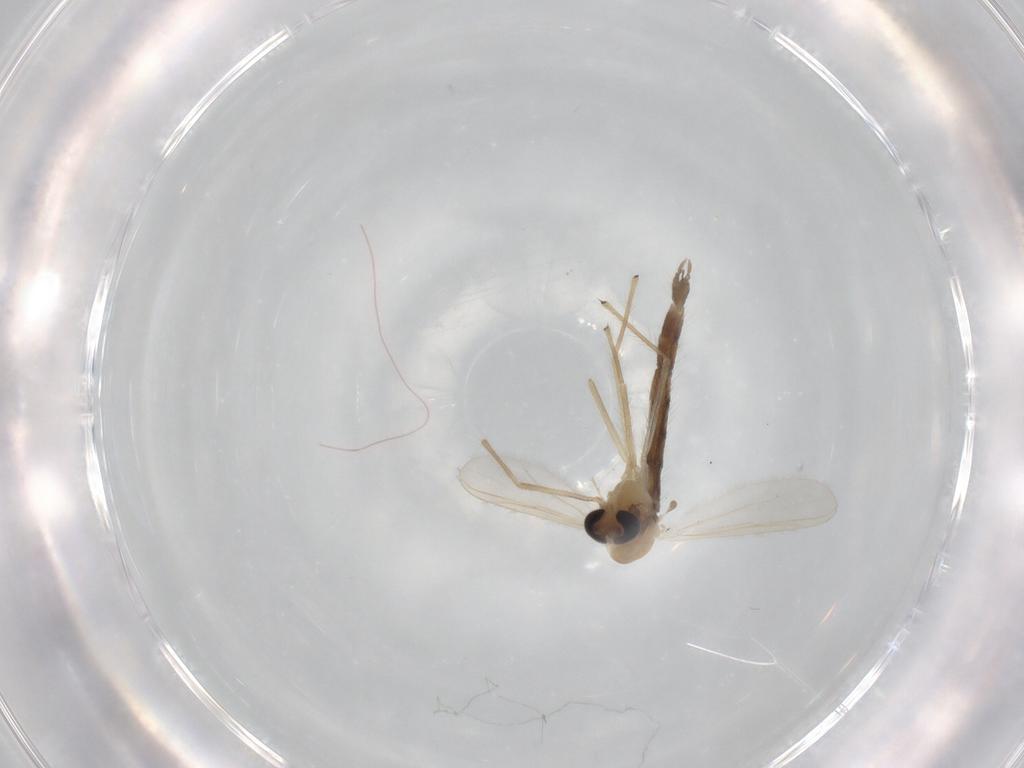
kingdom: Animalia
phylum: Arthropoda
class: Insecta
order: Diptera
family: Chironomidae
